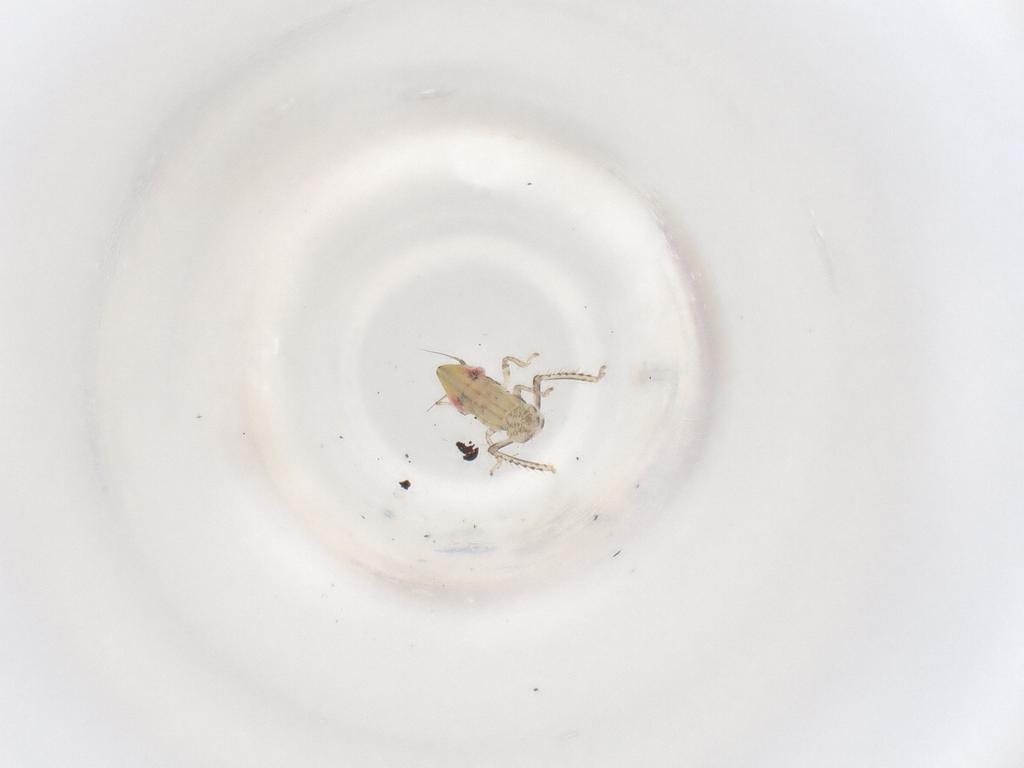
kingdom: Animalia
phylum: Arthropoda
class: Insecta
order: Hemiptera
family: Cicadellidae
